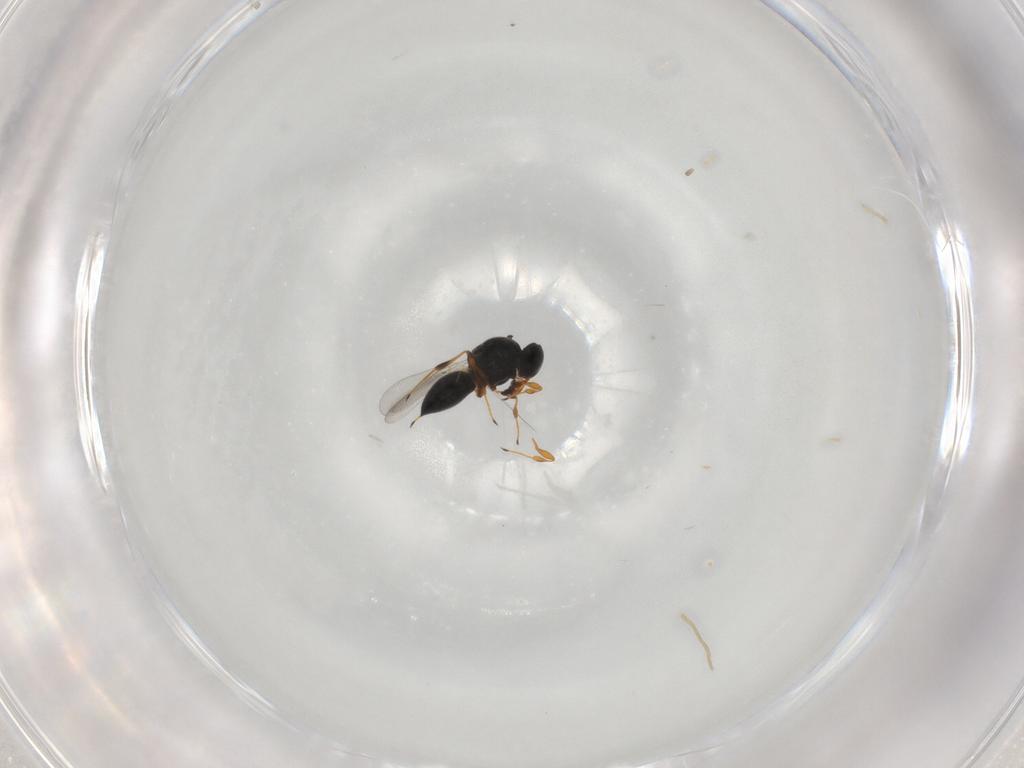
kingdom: Animalia
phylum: Arthropoda
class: Insecta
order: Hymenoptera
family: Platygastridae
